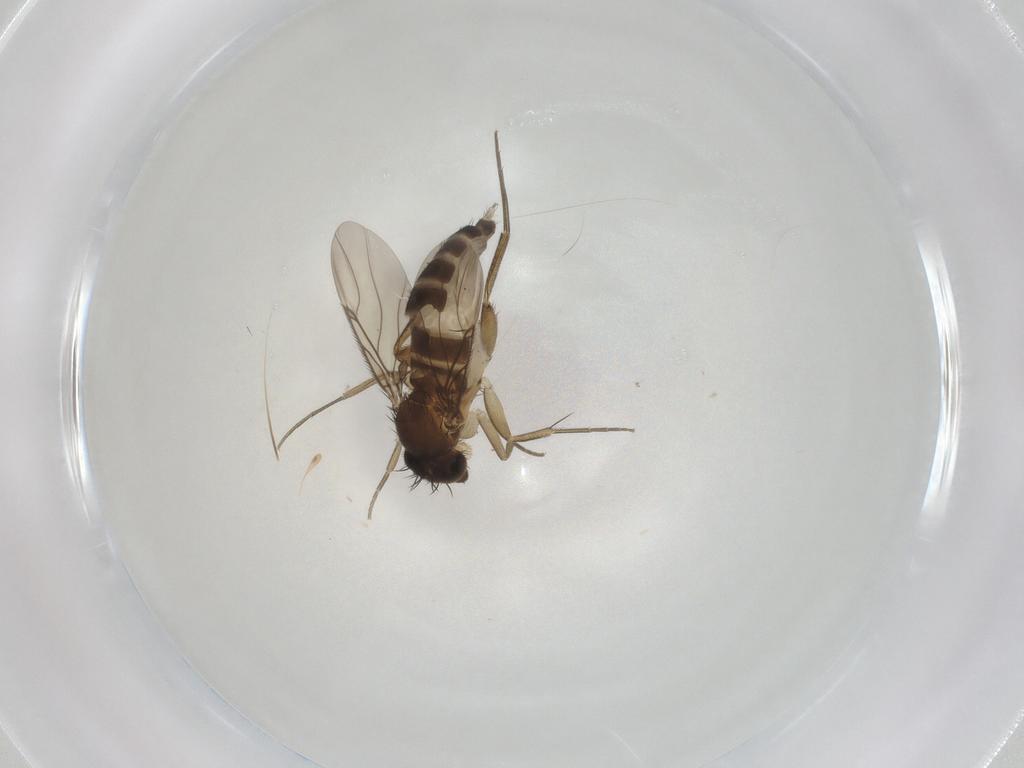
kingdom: Animalia
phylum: Arthropoda
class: Insecta
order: Diptera
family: Phoridae
